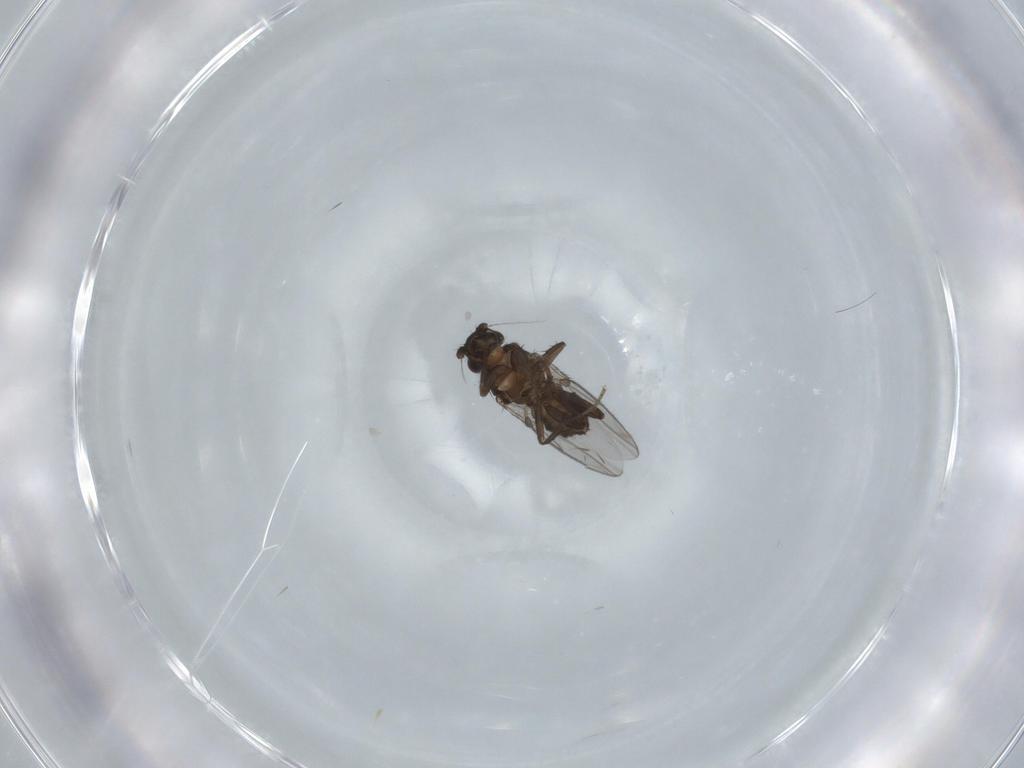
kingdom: Animalia
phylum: Arthropoda
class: Insecta
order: Diptera
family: Sphaeroceridae
